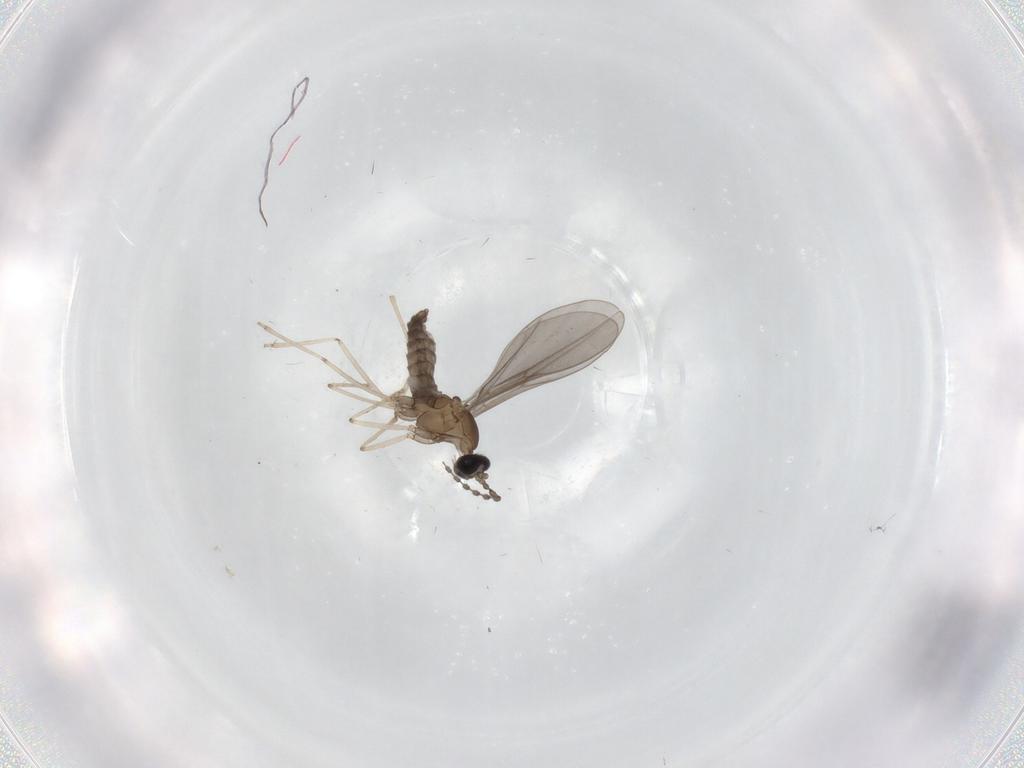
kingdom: Animalia
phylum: Arthropoda
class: Insecta
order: Diptera
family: Cecidomyiidae
